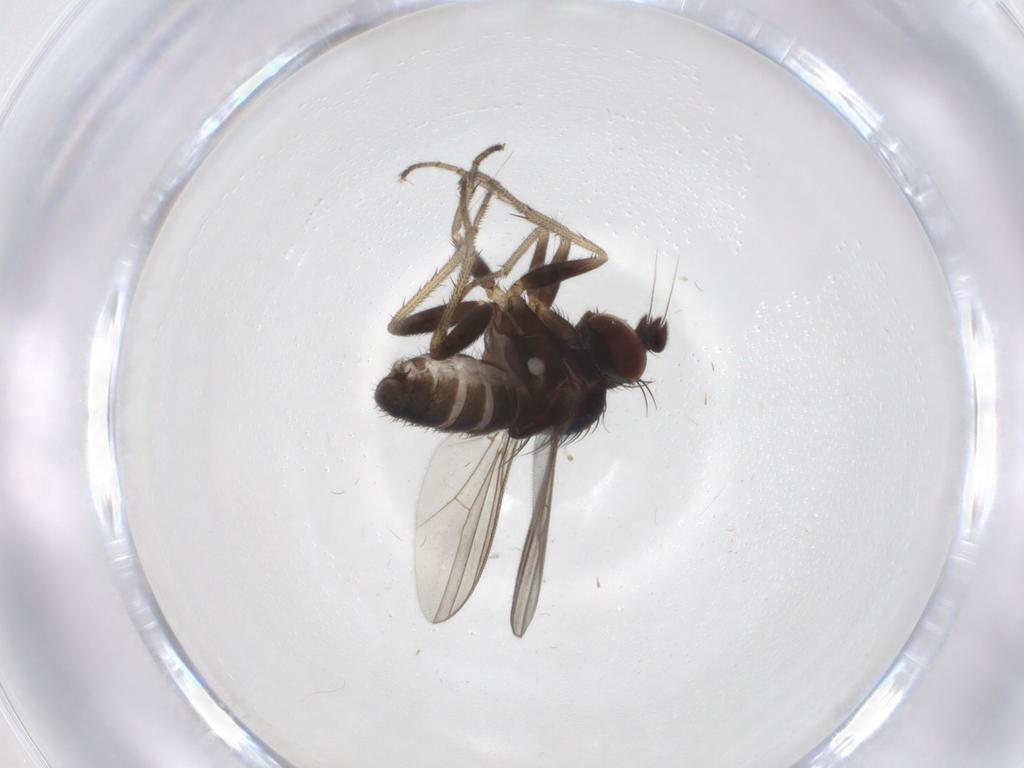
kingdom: Animalia
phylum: Arthropoda
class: Insecta
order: Diptera
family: Dolichopodidae
